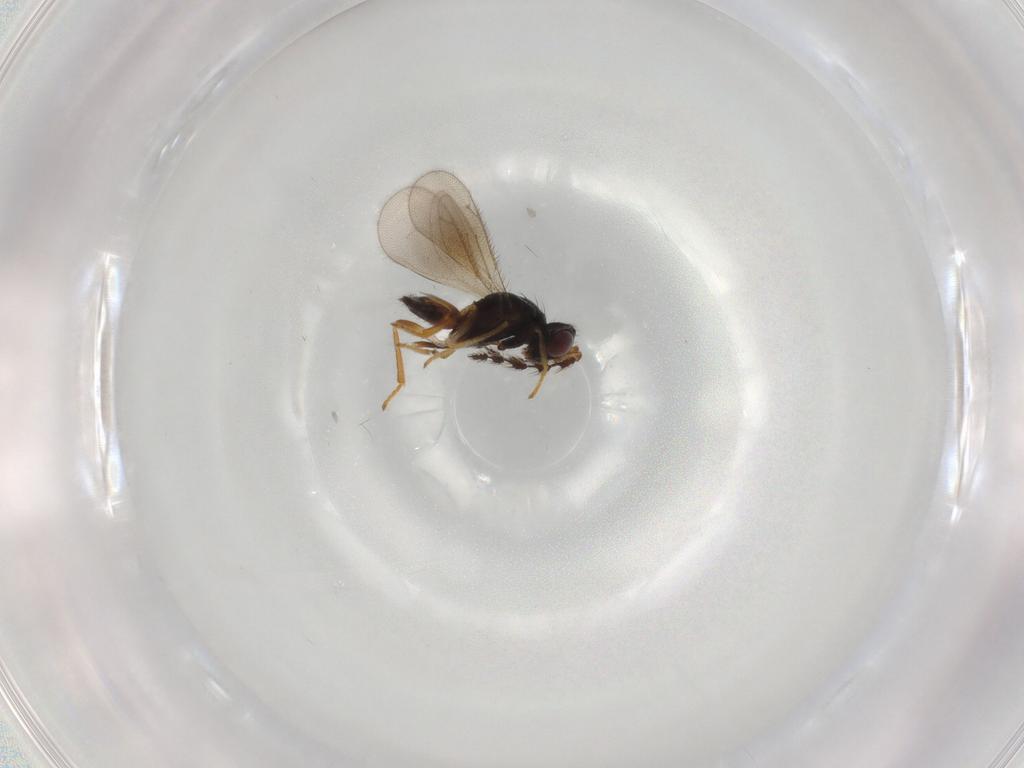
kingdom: Animalia
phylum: Arthropoda
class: Insecta
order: Hymenoptera
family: Eulophidae
